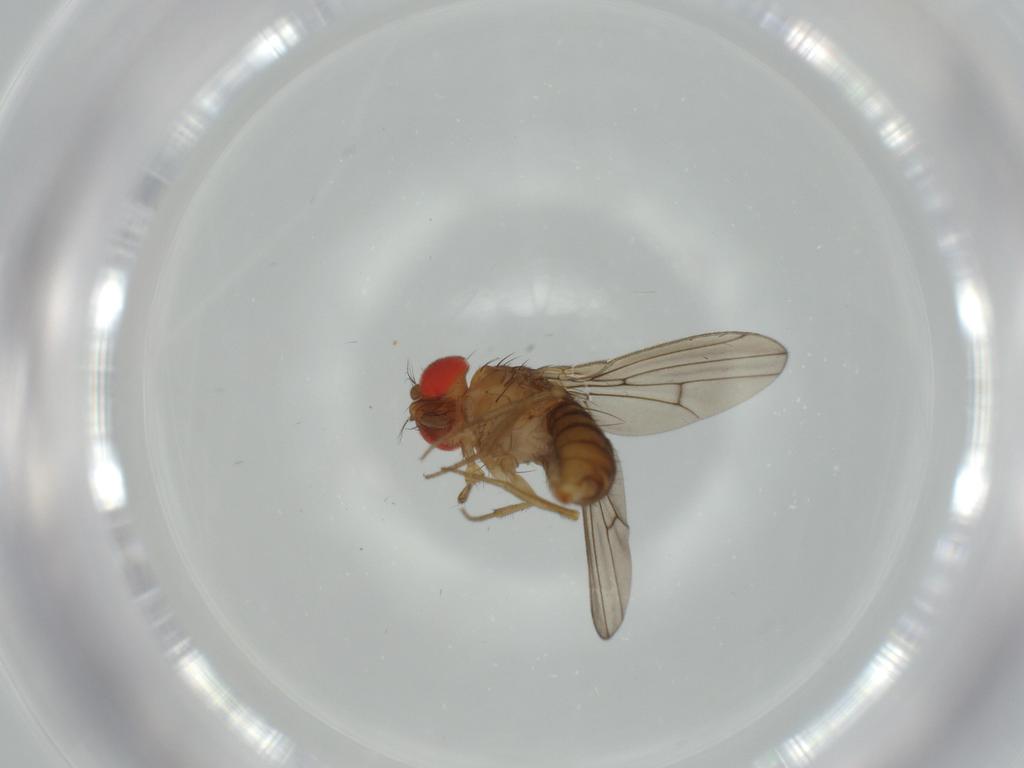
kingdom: Animalia
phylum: Arthropoda
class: Insecta
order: Diptera
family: Drosophilidae
